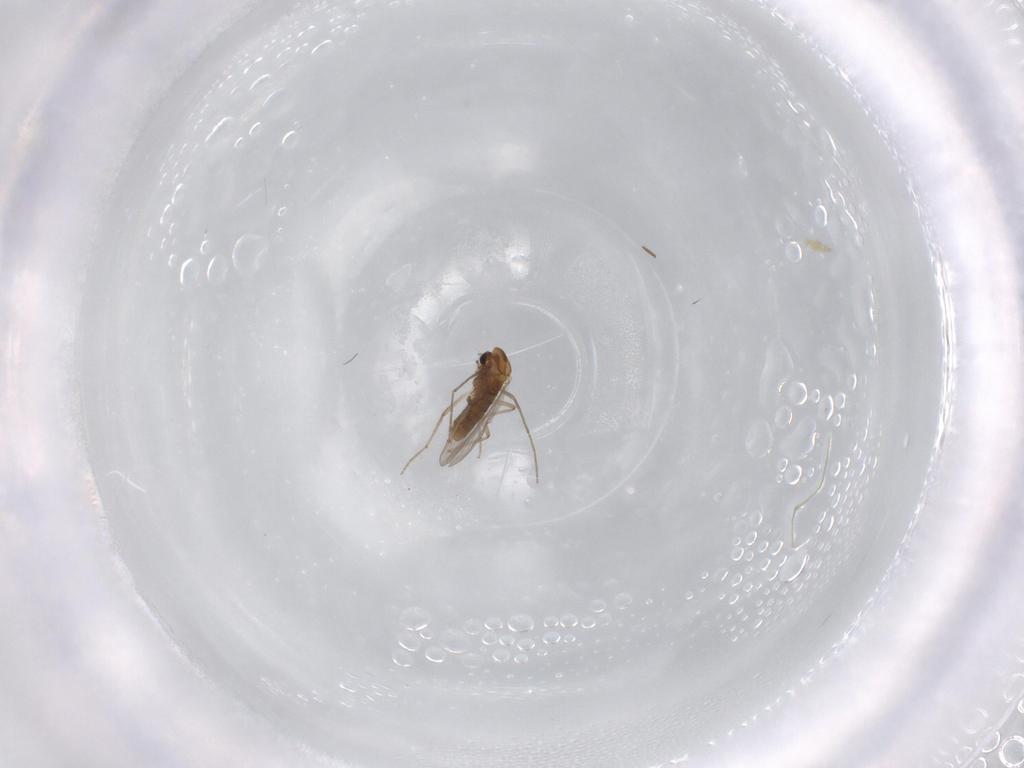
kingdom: Animalia
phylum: Arthropoda
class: Insecta
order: Diptera
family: Chironomidae
